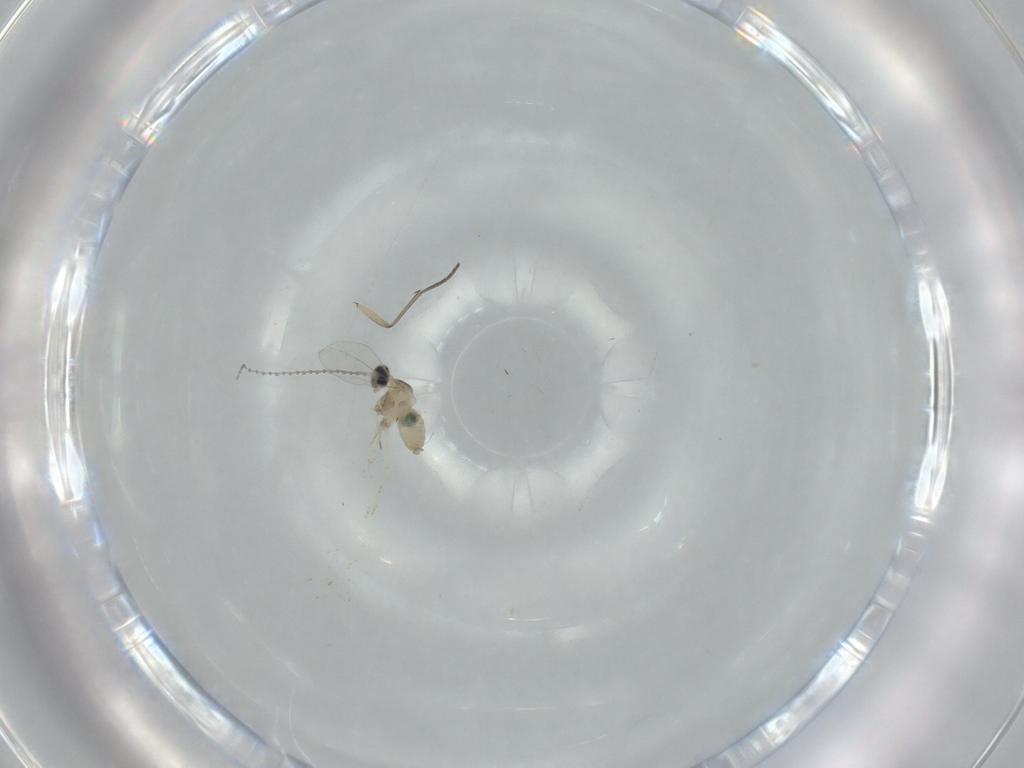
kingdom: Animalia
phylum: Arthropoda
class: Insecta
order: Diptera
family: Cecidomyiidae
